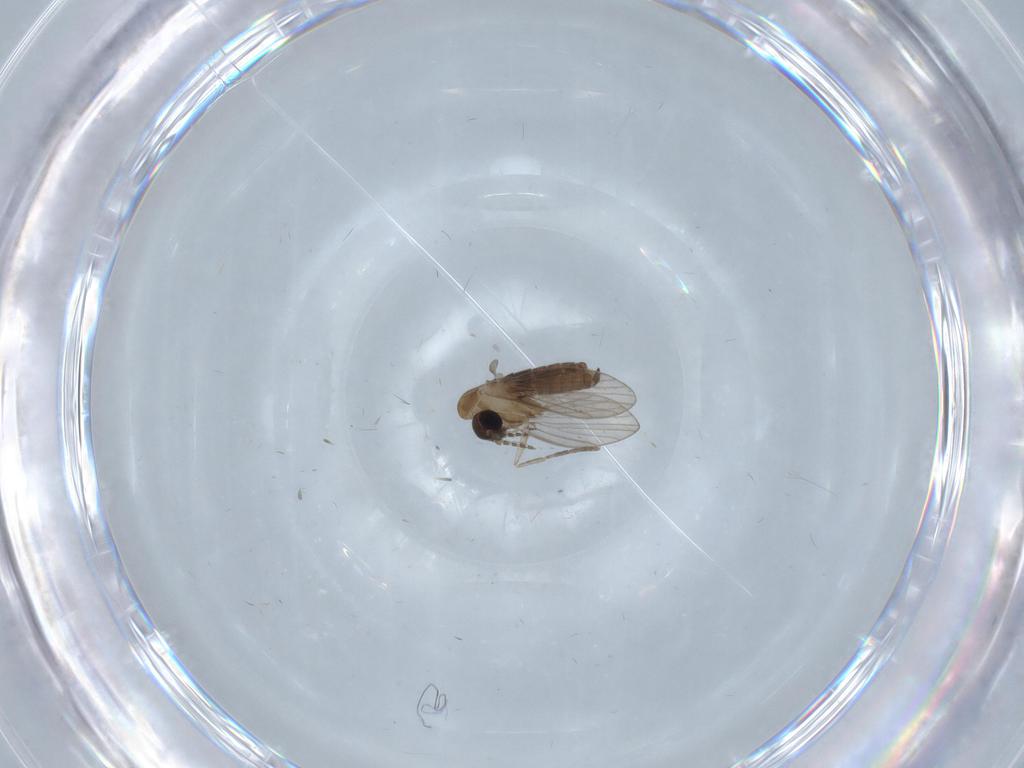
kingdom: Animalia
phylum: Arthropoda
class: Insecta
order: Diptera
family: Psychodidae
